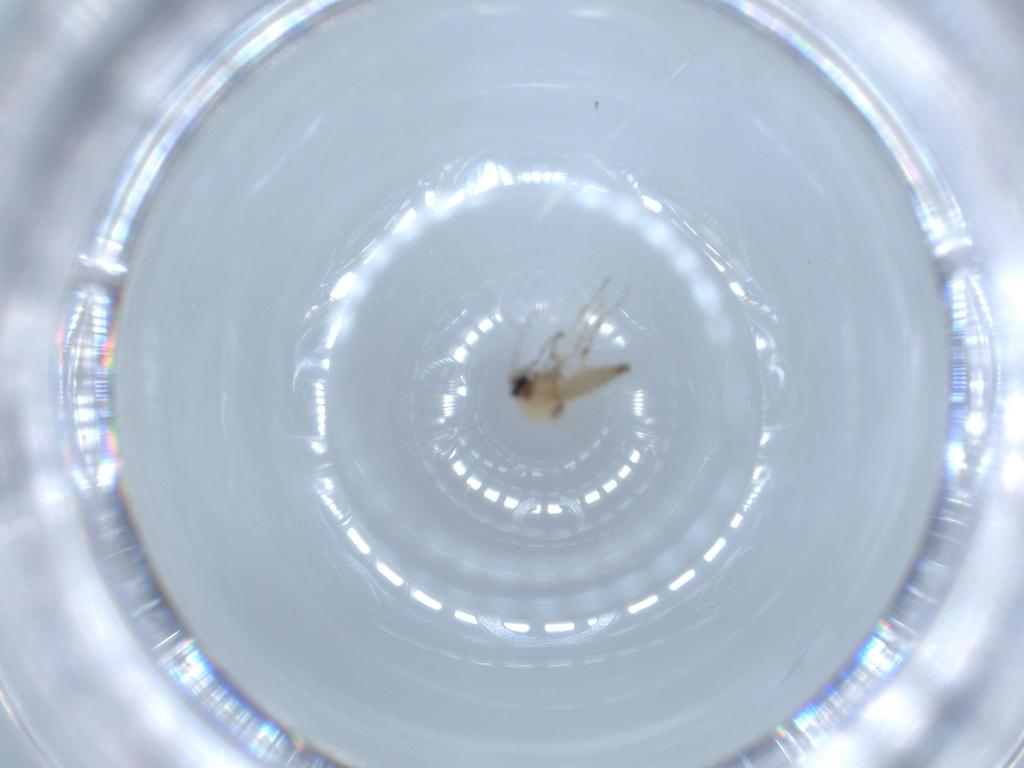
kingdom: Animalia
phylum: Arthropoda
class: Insecta
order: Diptera
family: Ceratopogonidae
